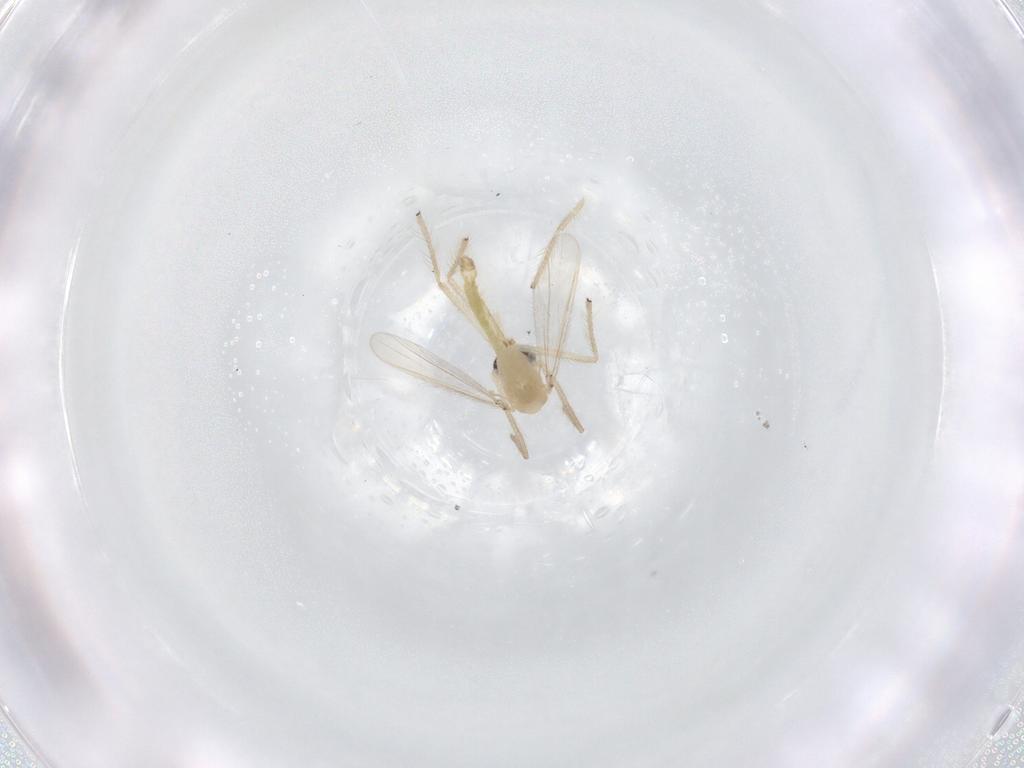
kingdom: Animalia
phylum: Arthropoda
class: Insecta
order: Diptera
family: Chironomidae
